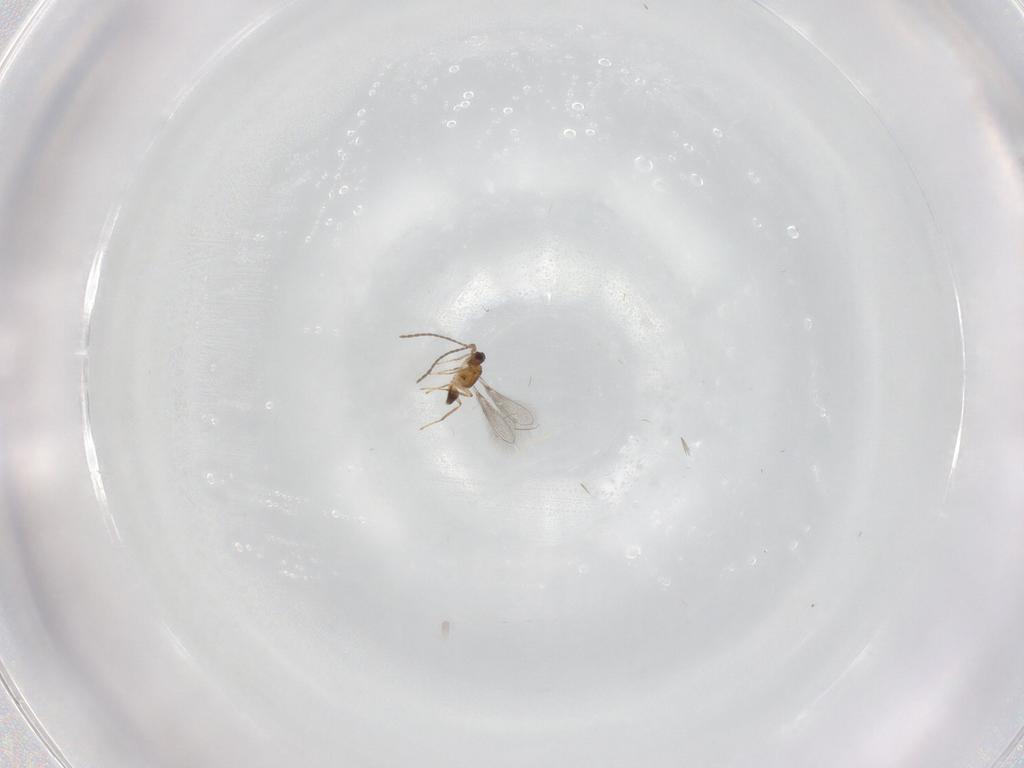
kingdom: Animalia
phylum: Arthropoda
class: Insecta
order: Hymenoptera
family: Mymaridae
